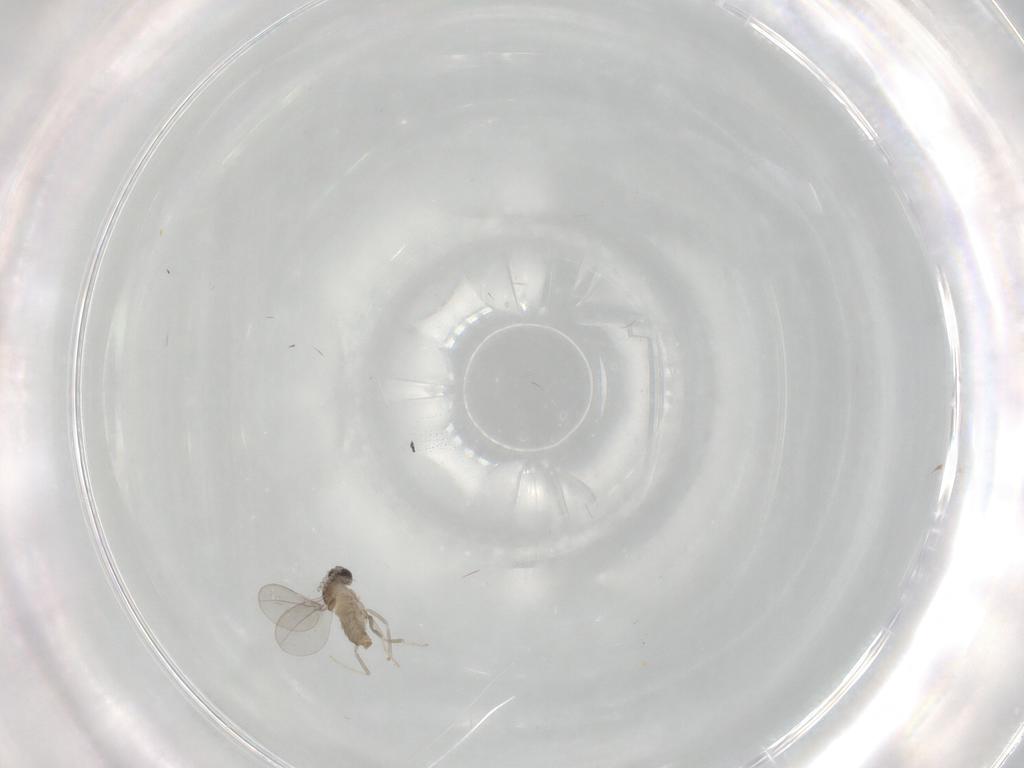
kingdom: Animalia
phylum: Arthropoda
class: Insecta
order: Diptera
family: Cecidomyiidae
